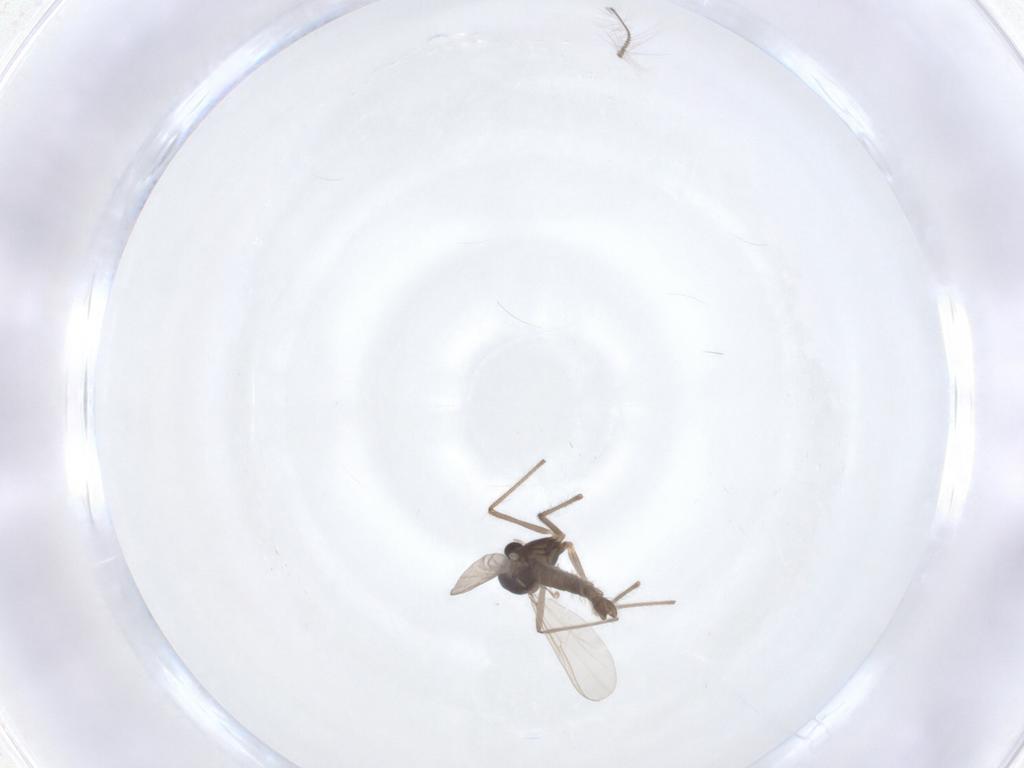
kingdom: Animalia
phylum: Arthropoda
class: Insecta
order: Diptera
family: Chironomidae
